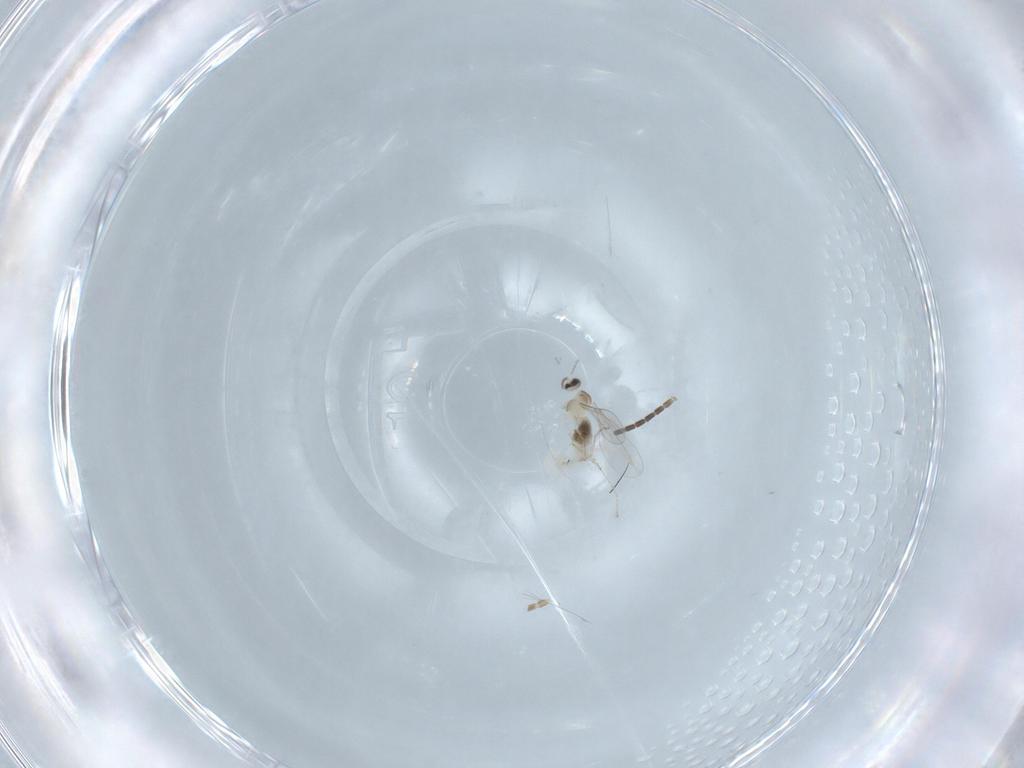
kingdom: Animalia
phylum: Arthropoda
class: Insecta
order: Diptera
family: Cecidomyiidae
